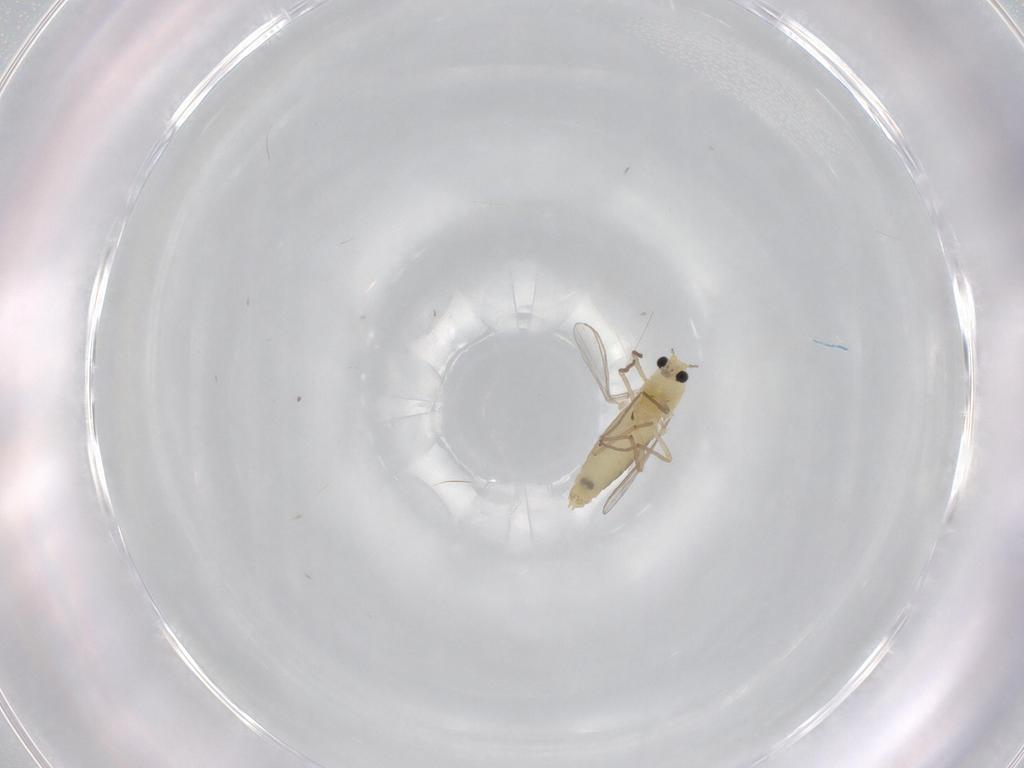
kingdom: Animalia
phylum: Arthropoda
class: Insecta
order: Diptera
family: Chironomidae
